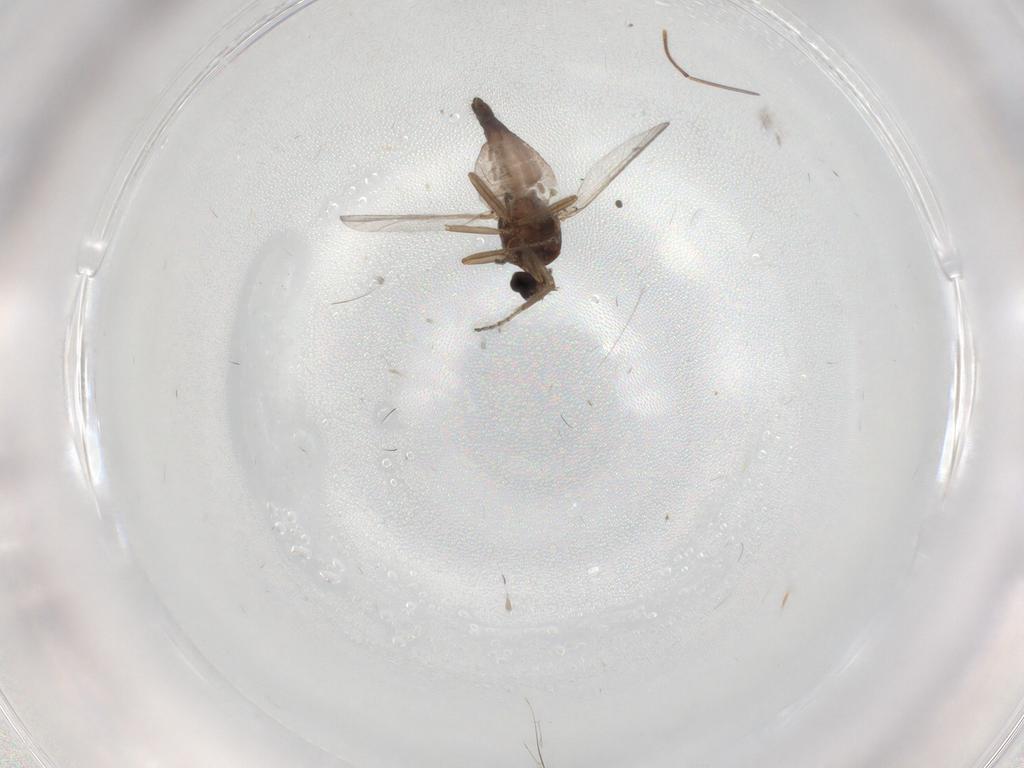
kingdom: Animalia
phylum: Arthropoda
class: Insecta
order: Diptera
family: Ceratopogonidae
